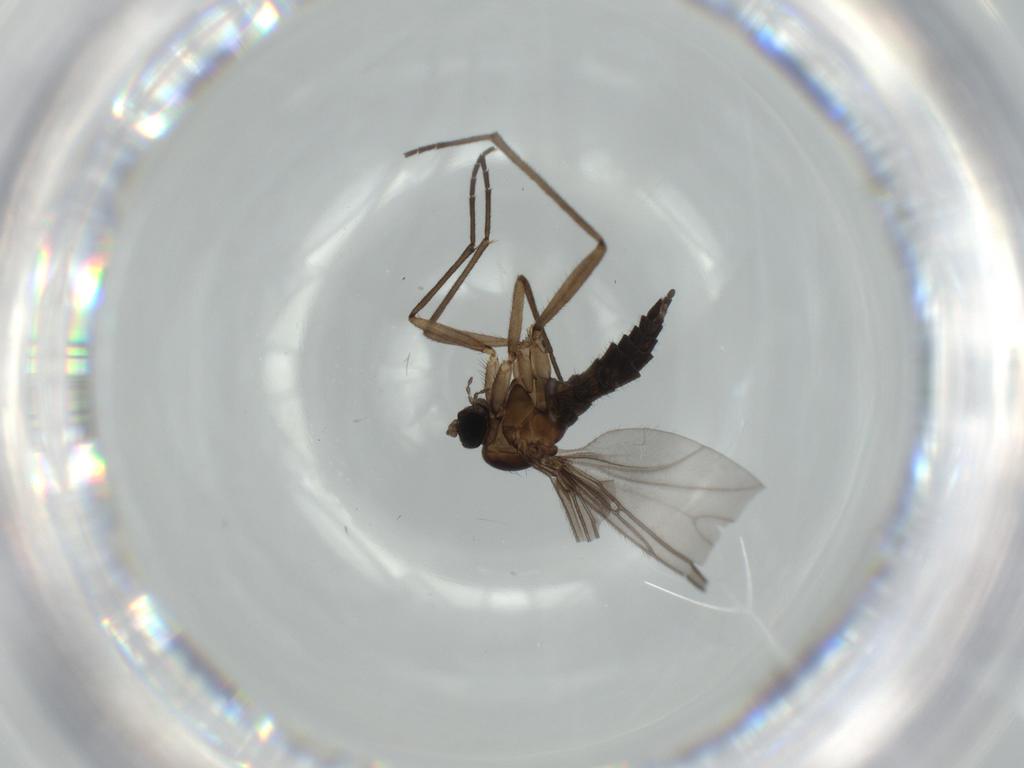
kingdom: Animalia
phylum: Arthropoda
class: Insecta
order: Diptera
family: Sciaridae
